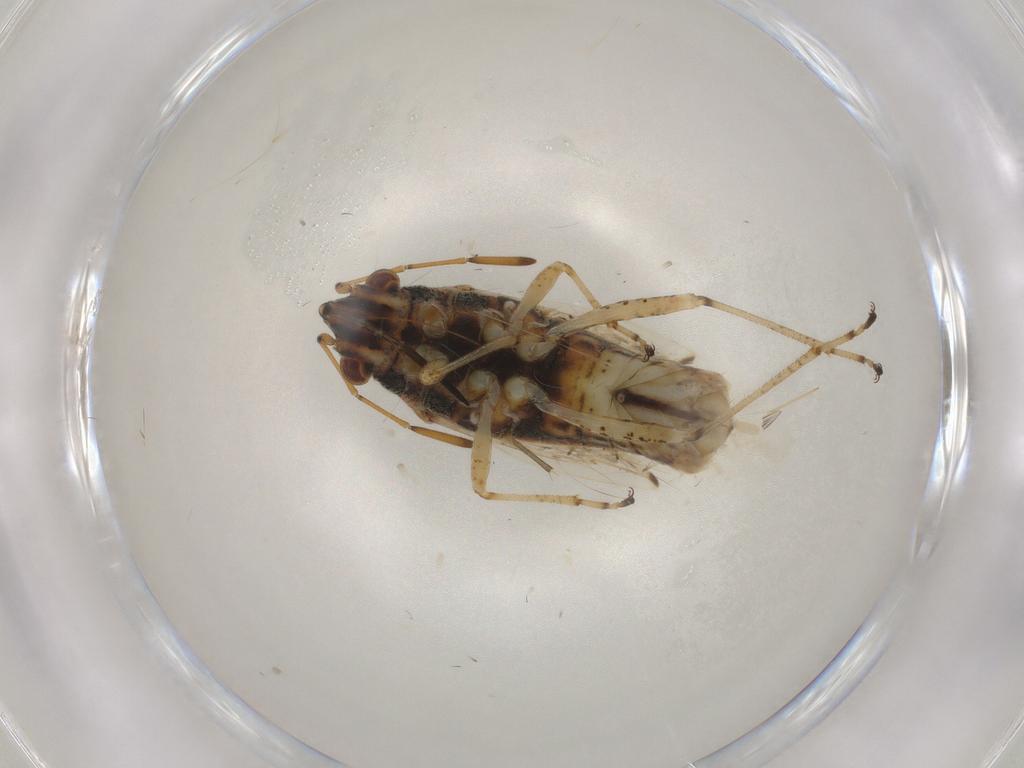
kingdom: Animalia
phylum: Arthropoda
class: Insecta
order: Hemiptera
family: Lygaeidae
